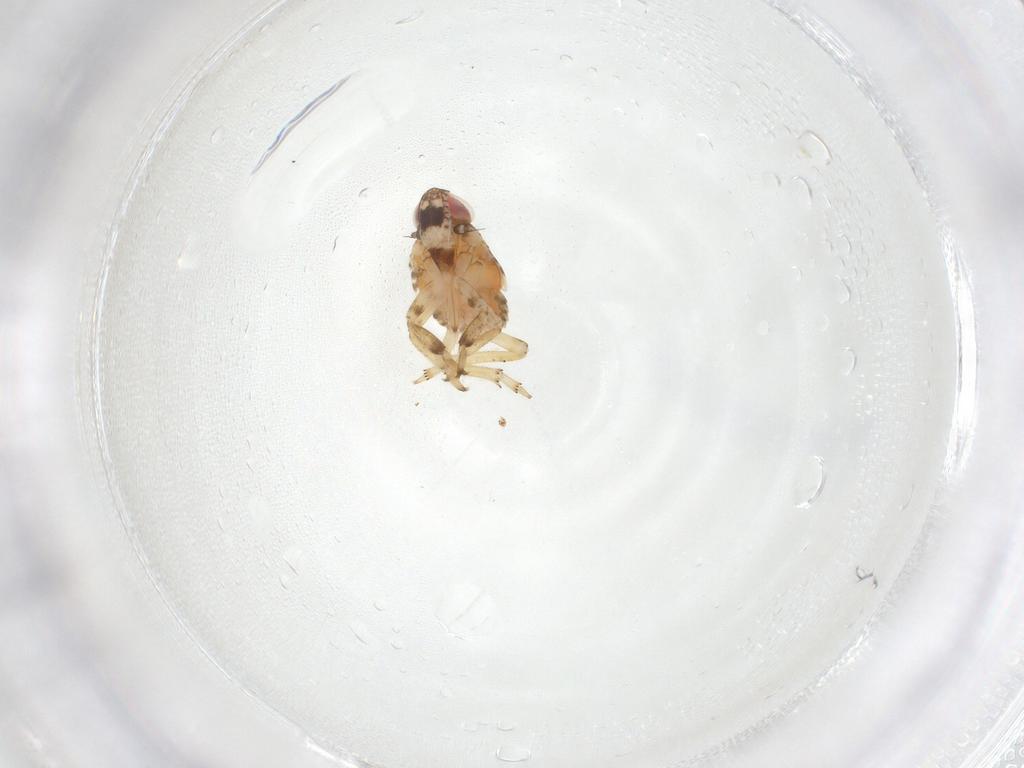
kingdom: Animalia
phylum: Arthropoda
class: Insecta
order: Hemiptera
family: Issidae
